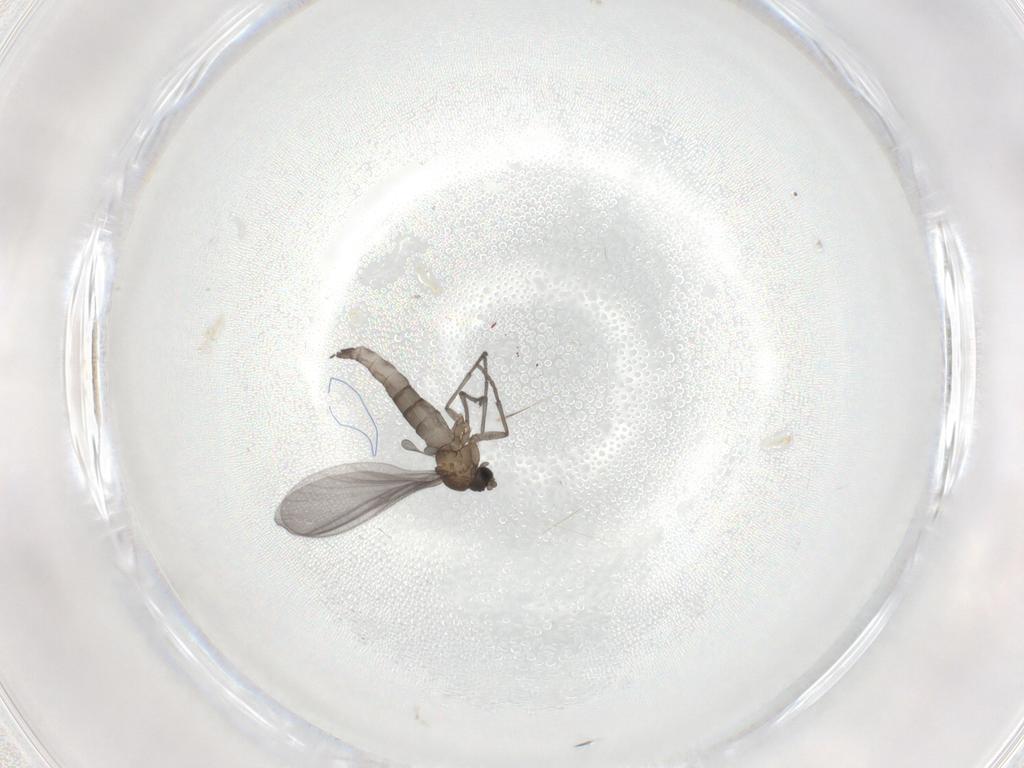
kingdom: Animalia
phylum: Arthropoda
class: Insecta
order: Diptera
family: Sciaridae
